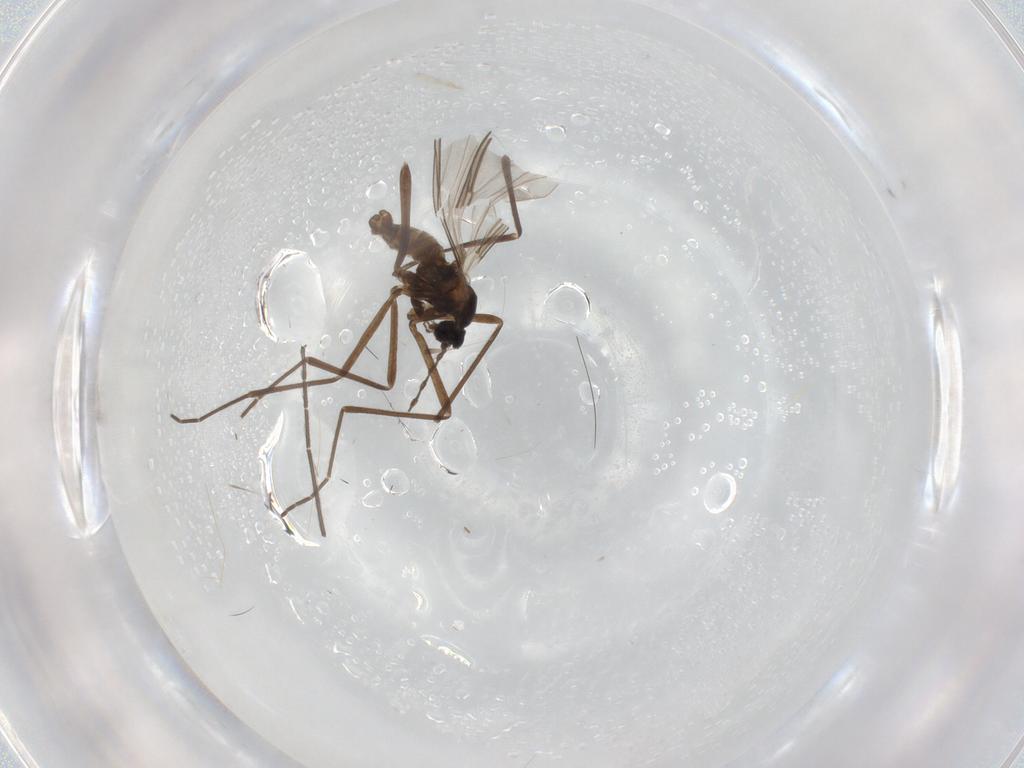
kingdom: Animalia
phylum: Arthropoda
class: Insecta
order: Diptera
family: Cecidomyiidae
